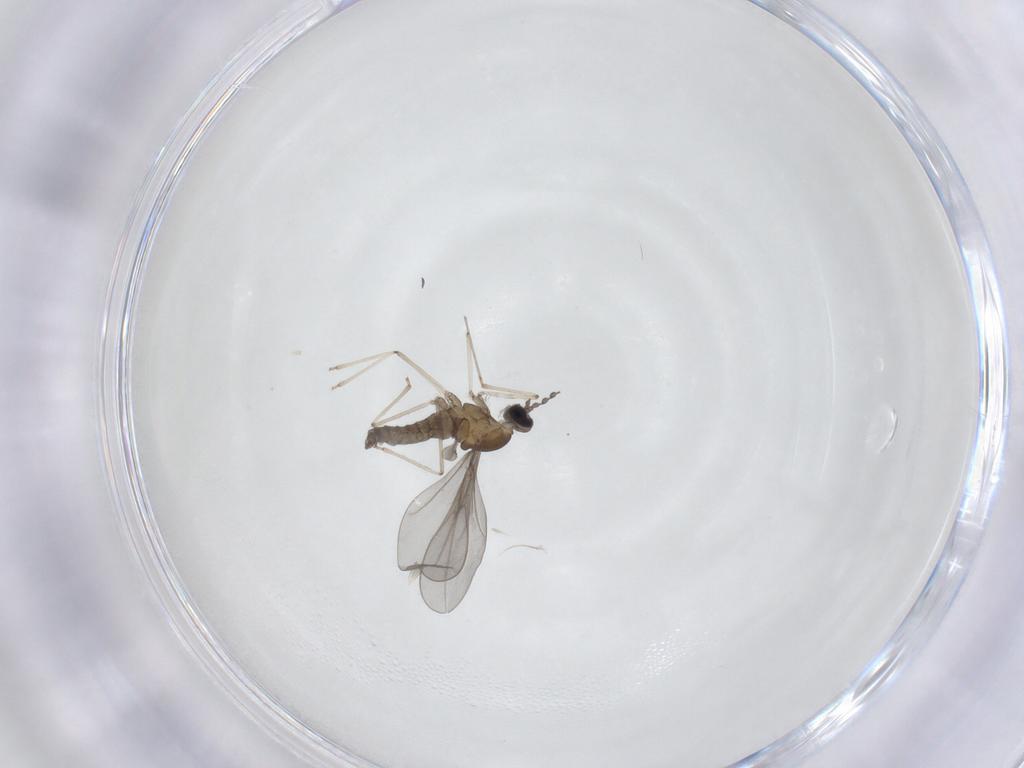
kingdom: Animalia
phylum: Arthropoda
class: Insecta
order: Diptera
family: Cecidomyiidae
